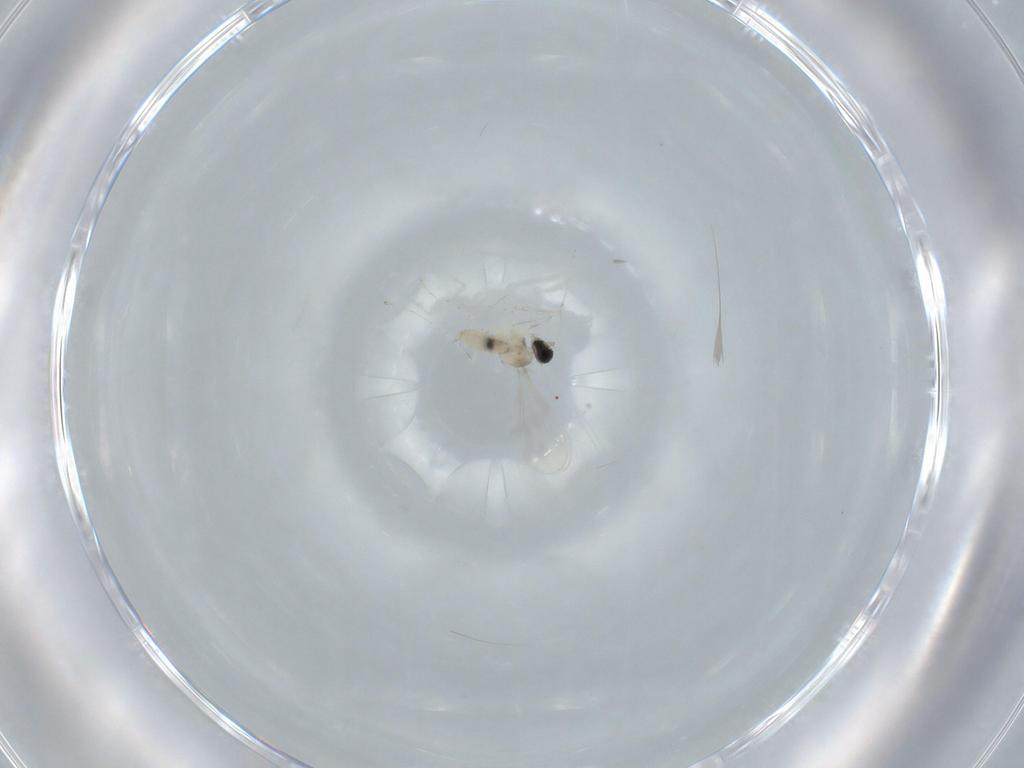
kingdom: Animalia
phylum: Arthropoda
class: Insecta
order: Diptera
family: Cecidomyiidae
